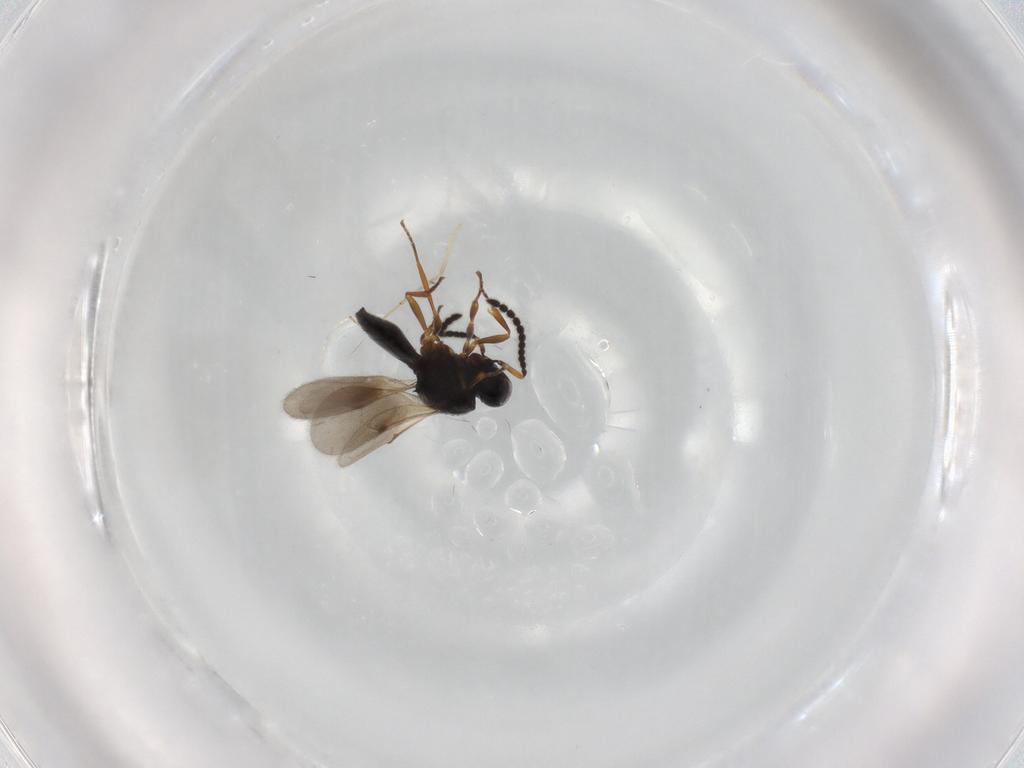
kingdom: Animalia
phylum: Arthropoda
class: Insecta
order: Hymenoptera
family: Scelionidae
